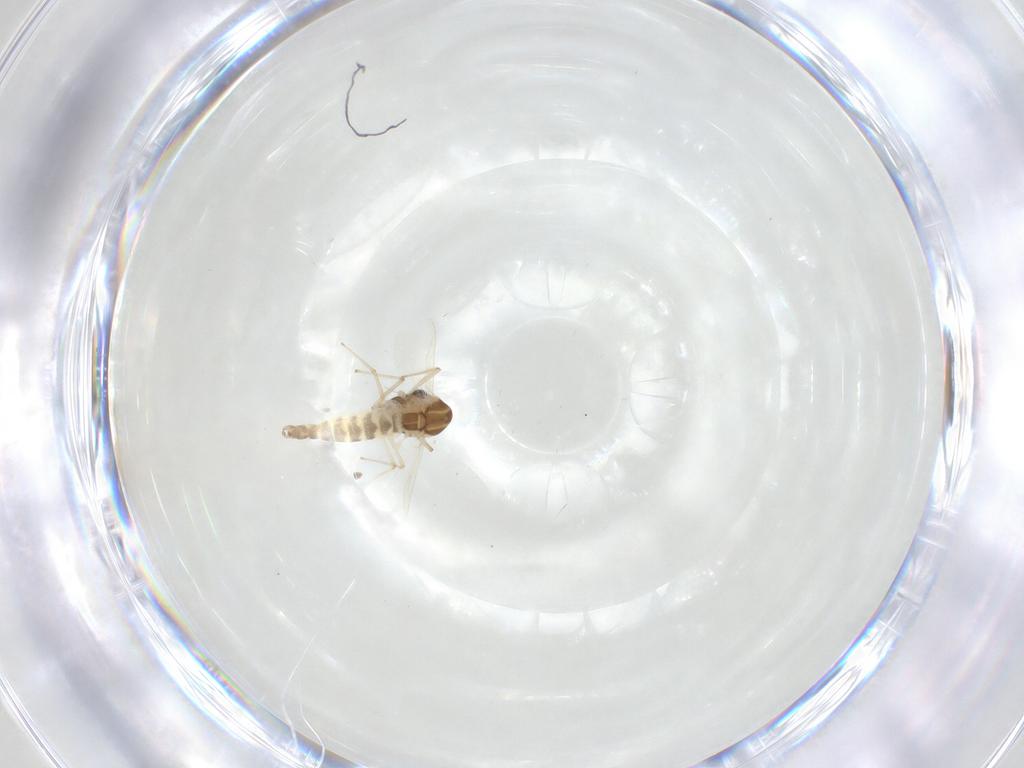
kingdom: Animalia
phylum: Arthropoda
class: Insecta
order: Diptera
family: Chironomidae
